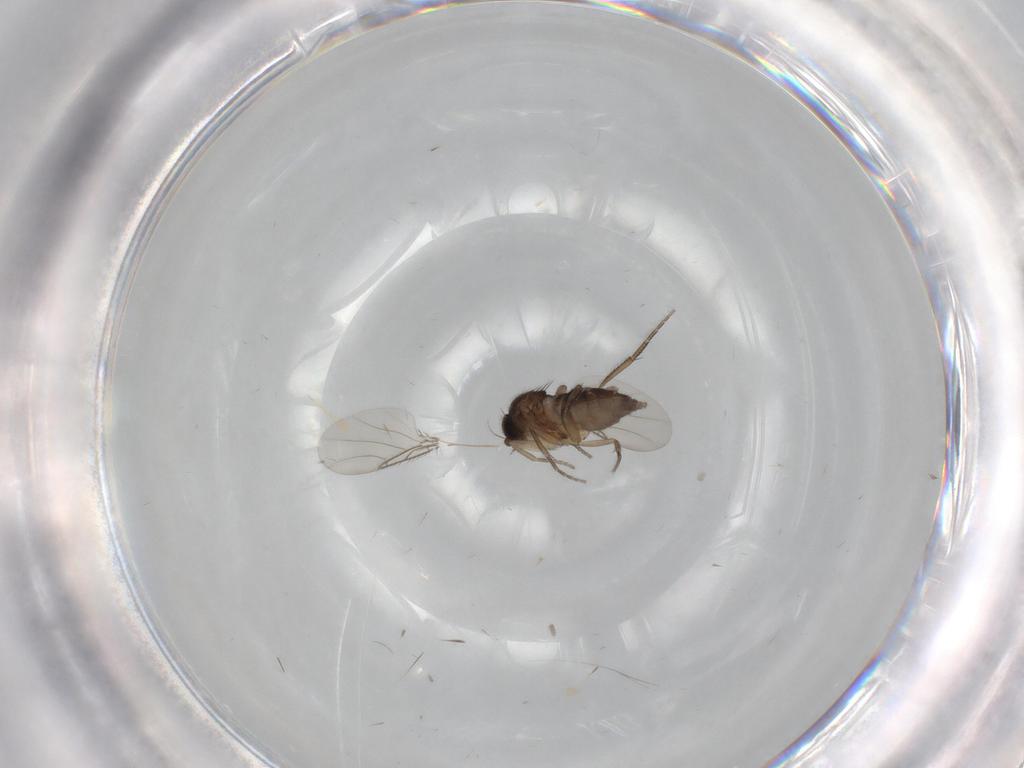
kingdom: Animalia
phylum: Arthropoda
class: Insecta
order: Diptera
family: Phoridae
